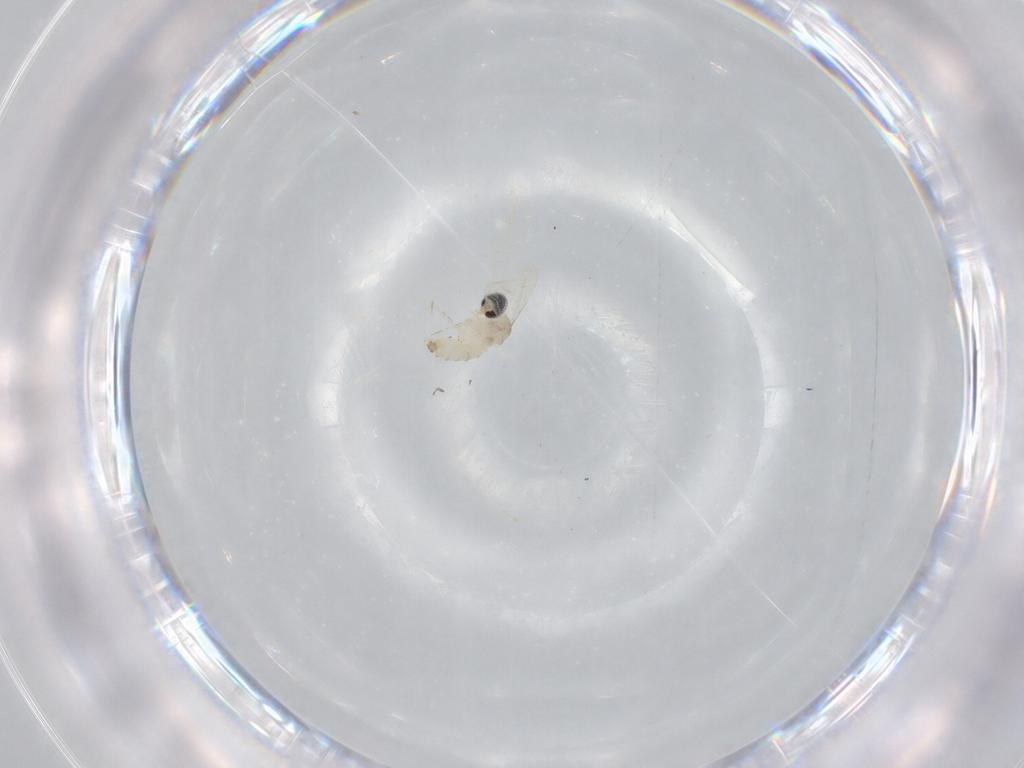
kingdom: Animalia
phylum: Arthropoda
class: Insecta
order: Diptera
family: Cecidomyiidae
